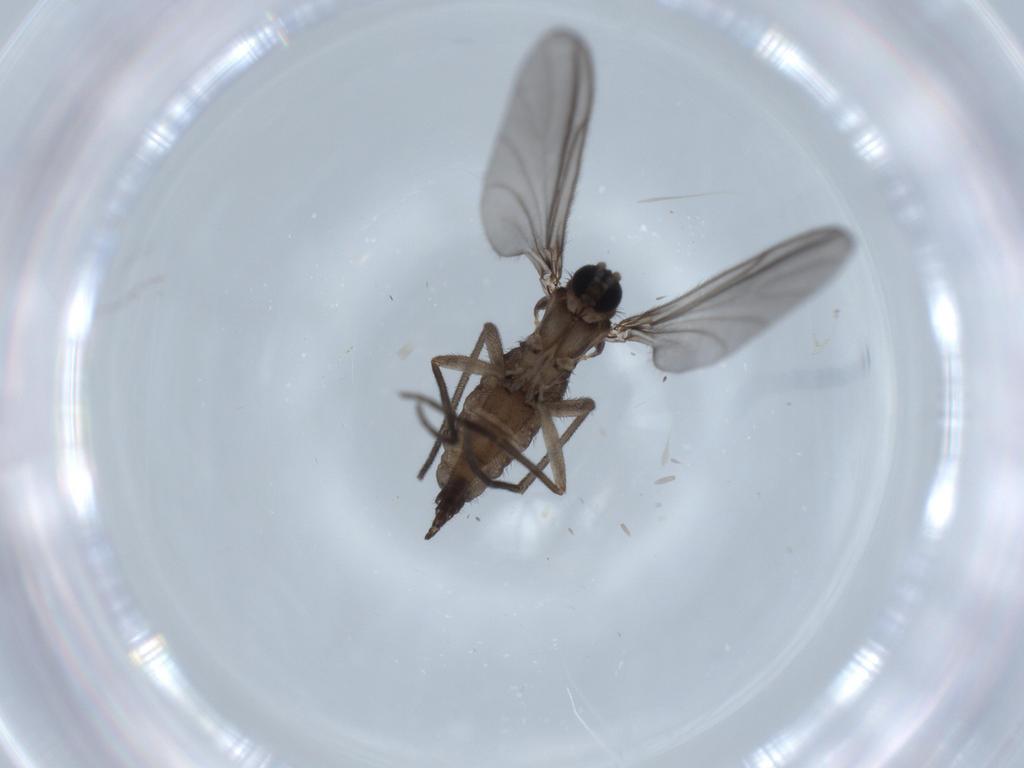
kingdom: Animalia
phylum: Arthropoda
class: Insecta
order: Diptera
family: Sciaridae
